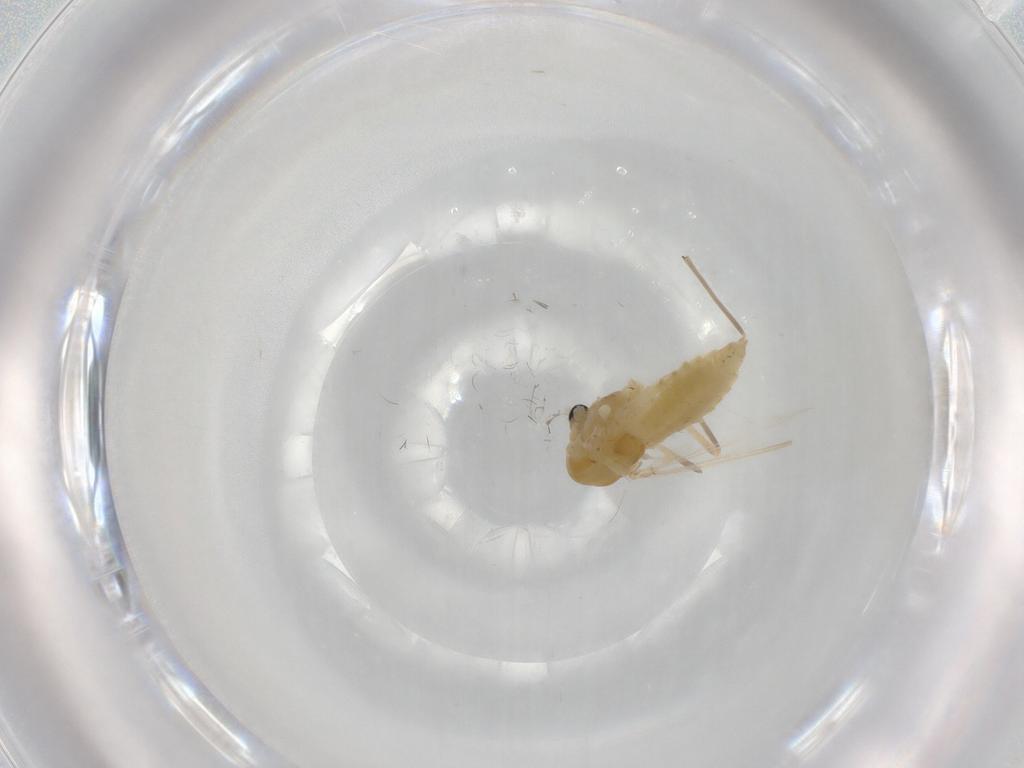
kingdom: Animalia
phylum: Arthropoda
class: Insecta
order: Diptera
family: Chironomidae
